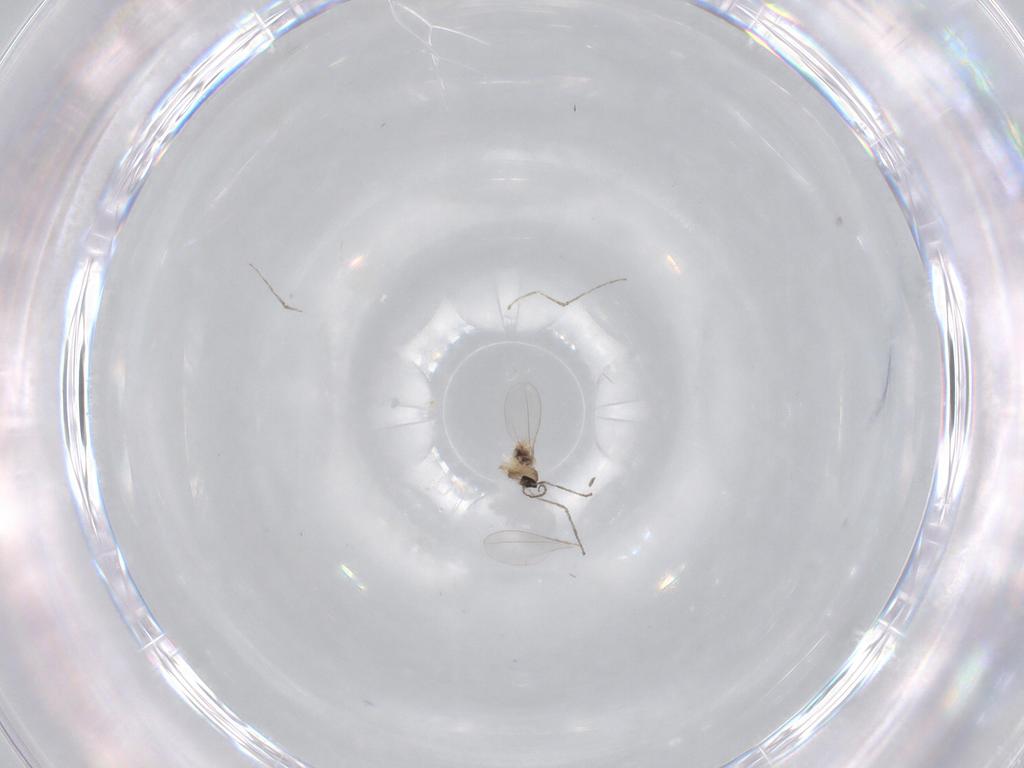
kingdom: Animalia
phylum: Arthropoda
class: Insecta
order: Diptera
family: Cecidomyiidae
